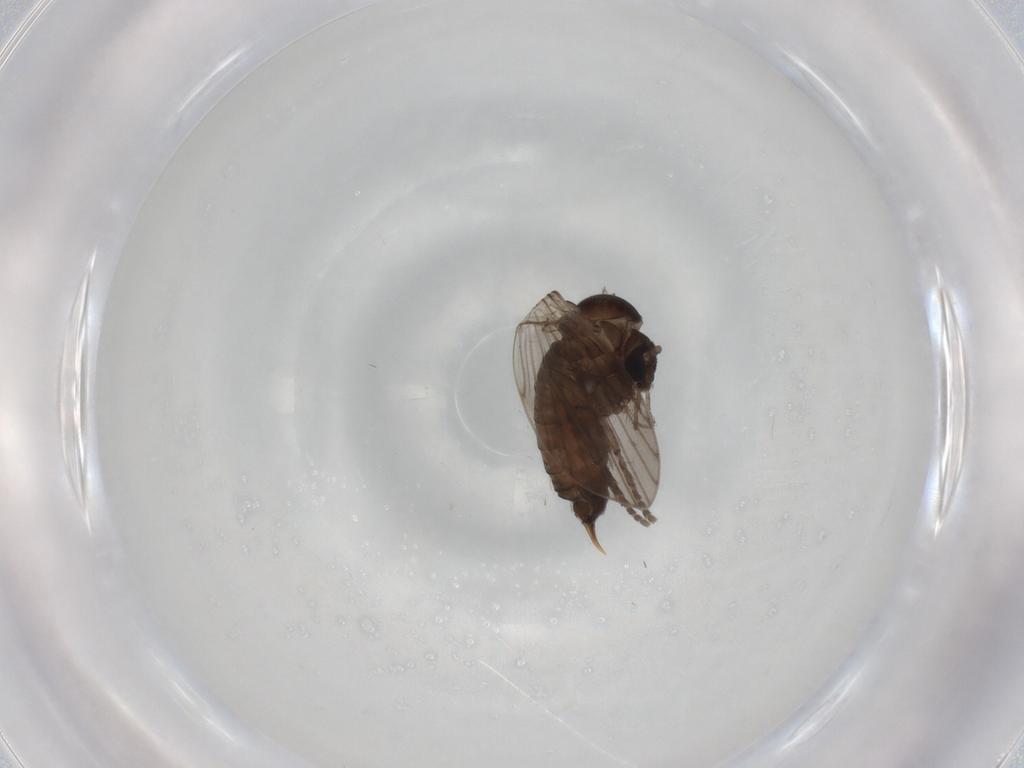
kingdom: Animalia
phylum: Arthropoda
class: Insecta
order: Diptera
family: Psychodidae
